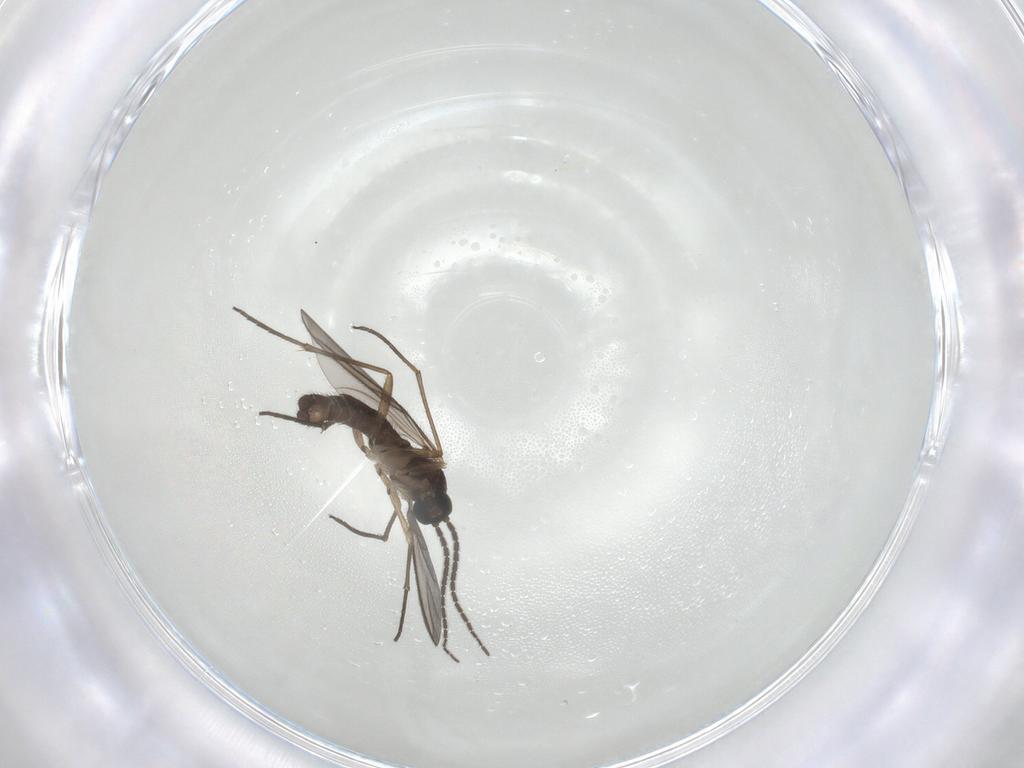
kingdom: Animalia
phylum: Arthropoda
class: Insecta
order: Diptera
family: Sciaridae
